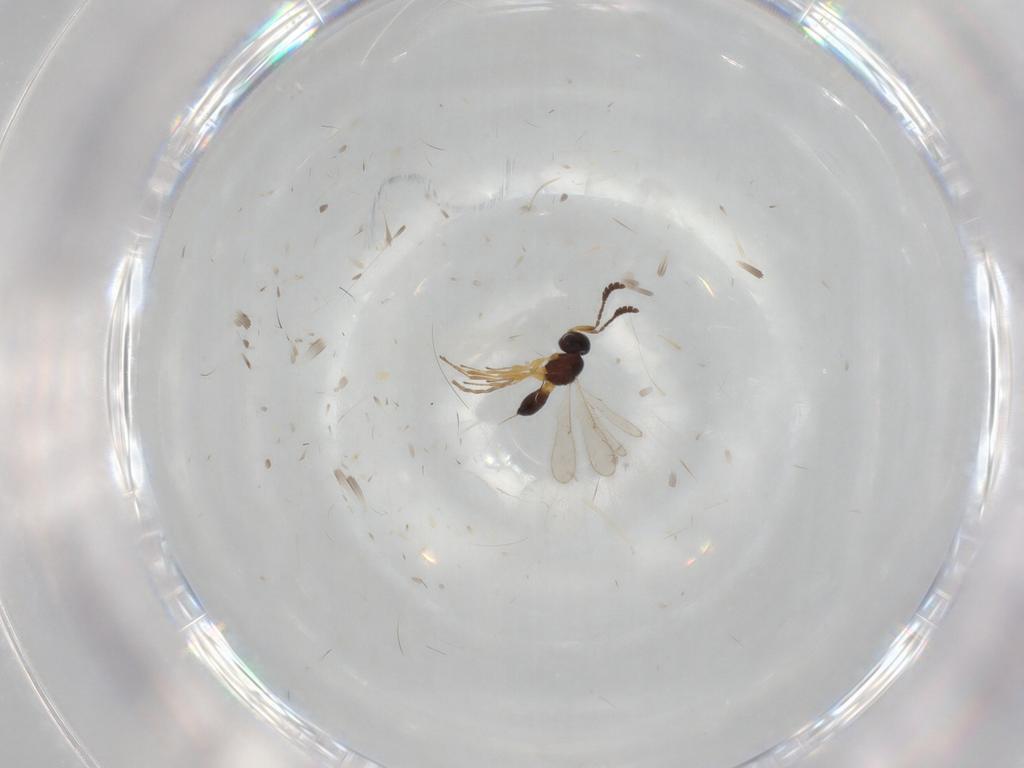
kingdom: Animalia
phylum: Arthropoda
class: Insecta
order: Hymenoptera
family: Scelionidae
